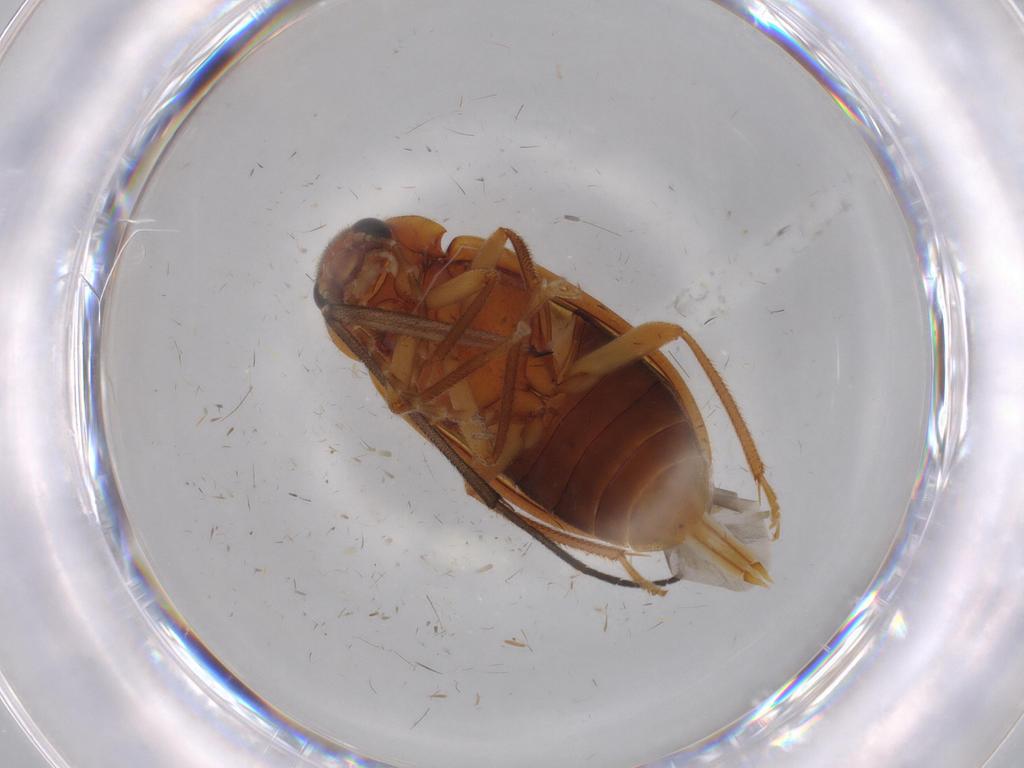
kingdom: Animalia
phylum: Arthropoda
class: Insecta
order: Coleoptera
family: Ptilodactylidae
